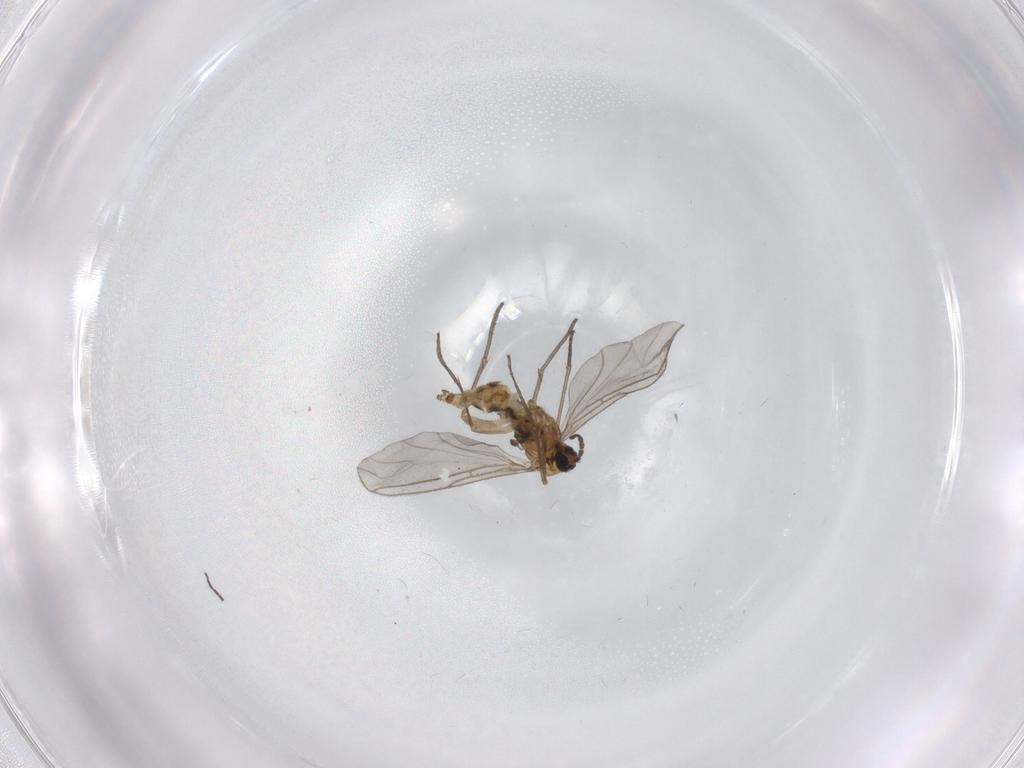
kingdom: Animalia
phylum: Arthropoda
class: Insecta
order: Diptera
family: Sciaridae
